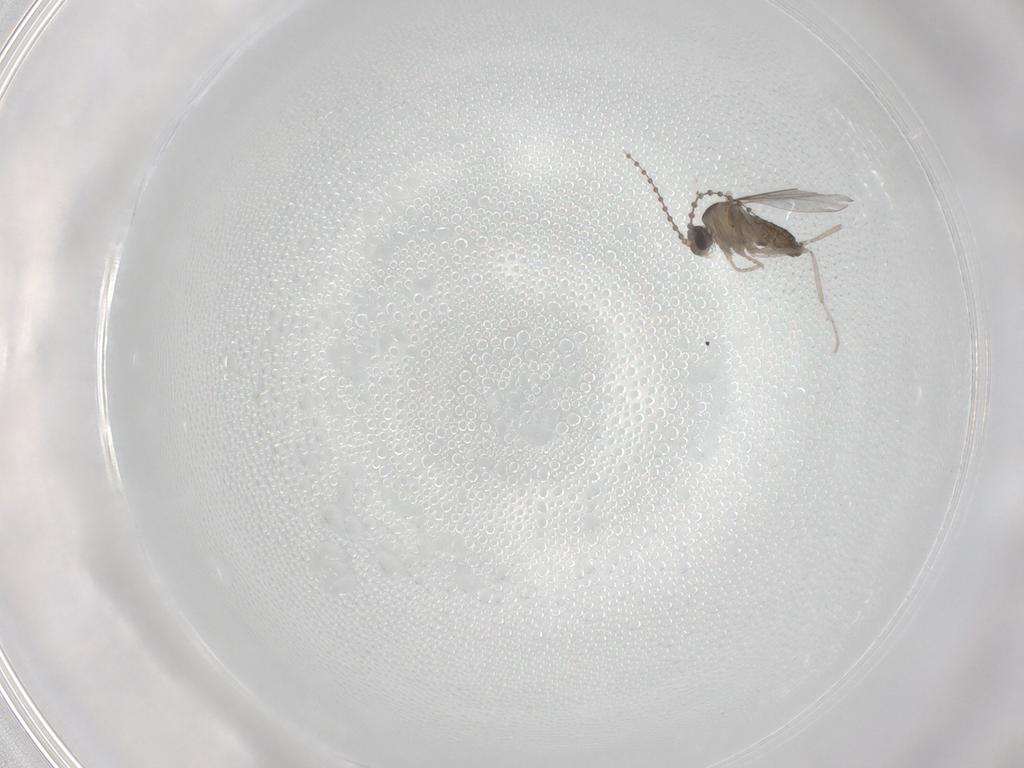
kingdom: Animalia
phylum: Arthropoda
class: Insecta
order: Diptera
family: Cecidomyiidae
